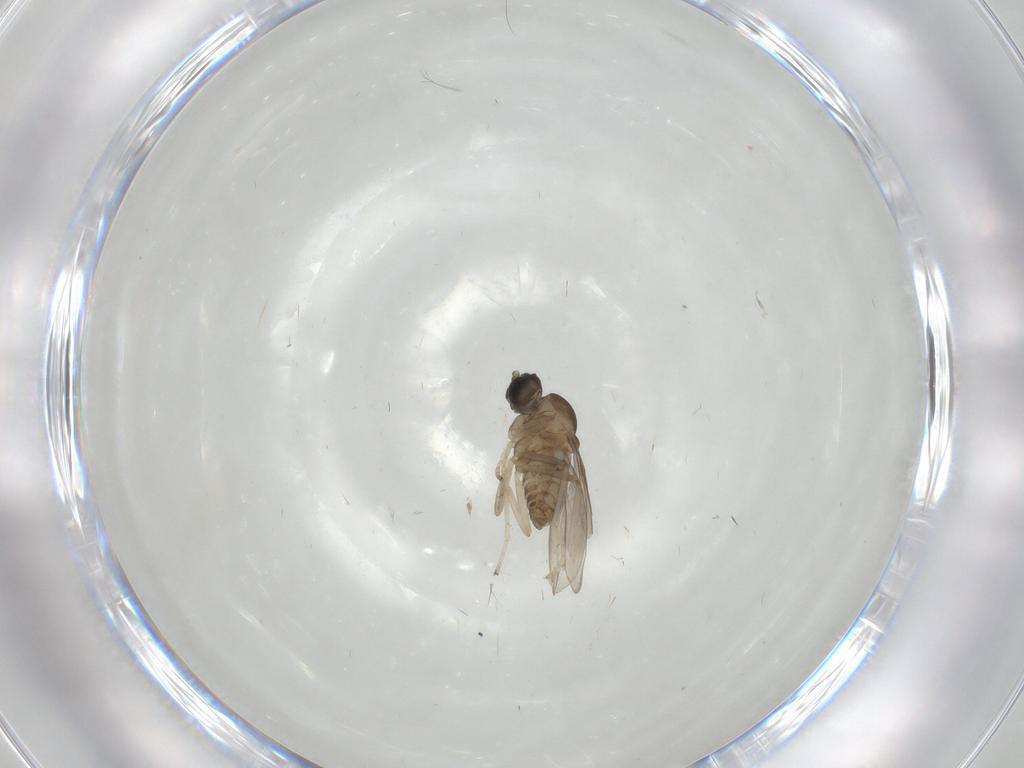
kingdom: Animalia
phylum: Arthropoda
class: Insecta
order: Diptera
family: Cecidomyiidae
